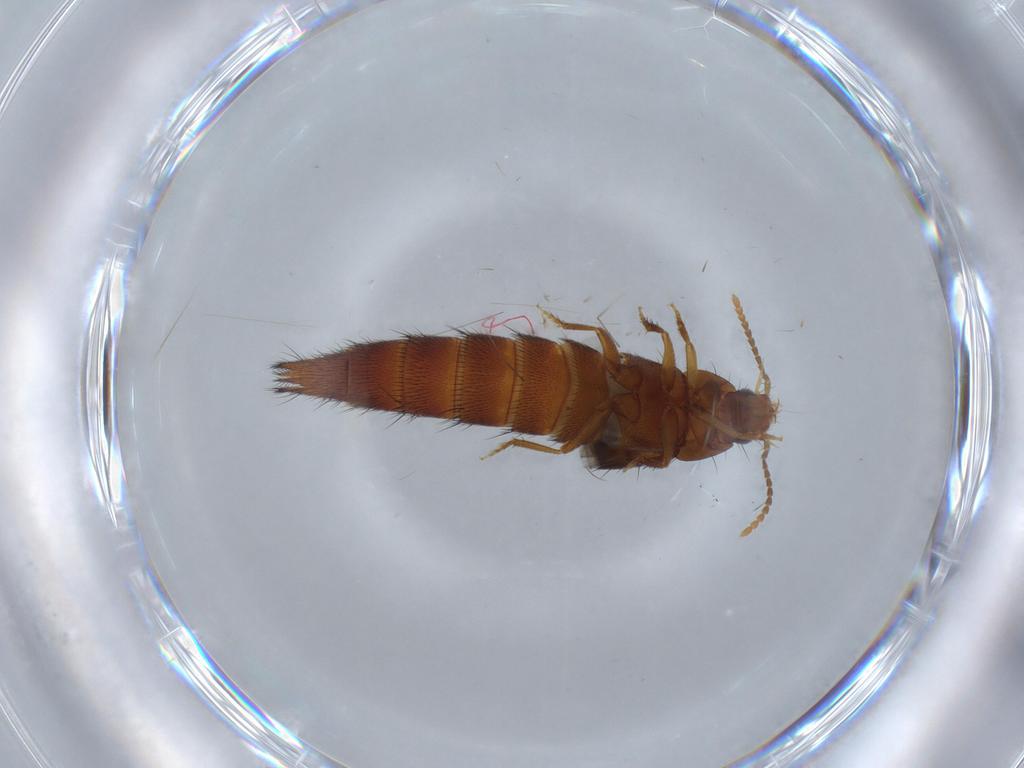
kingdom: Animalia
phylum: Arthropoda
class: Insecta
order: Coleoptera
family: Staphylinidae
